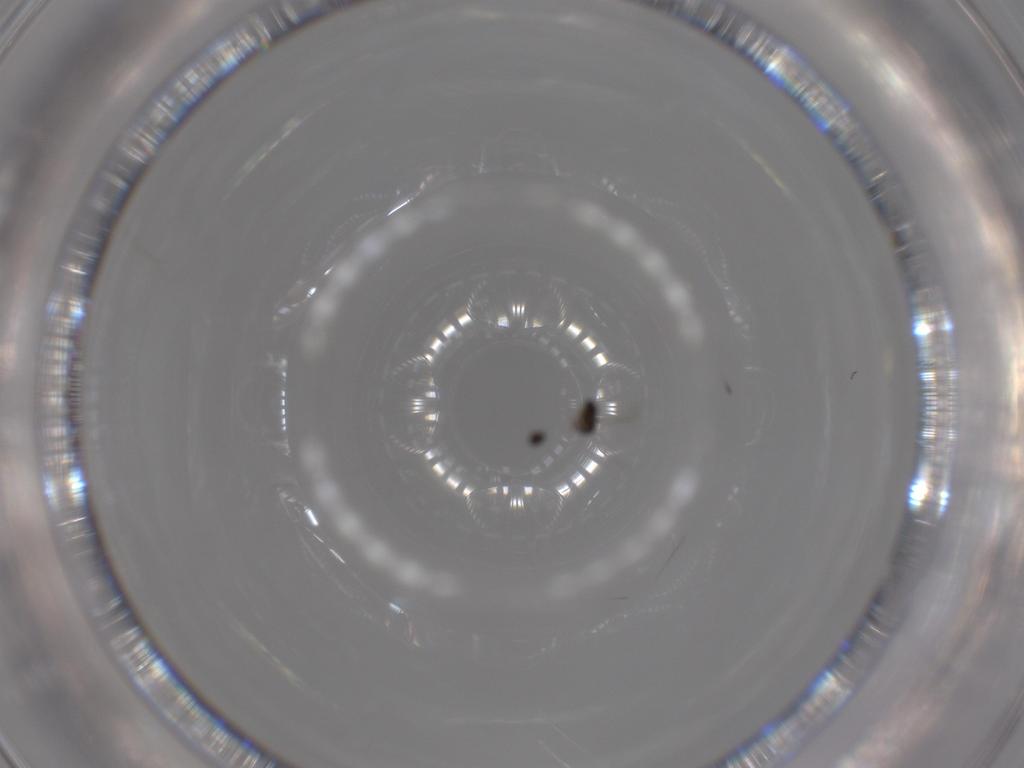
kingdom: Animalia
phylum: Arthropoda
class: Insecta
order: Hymenoptera
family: Mymaridae
